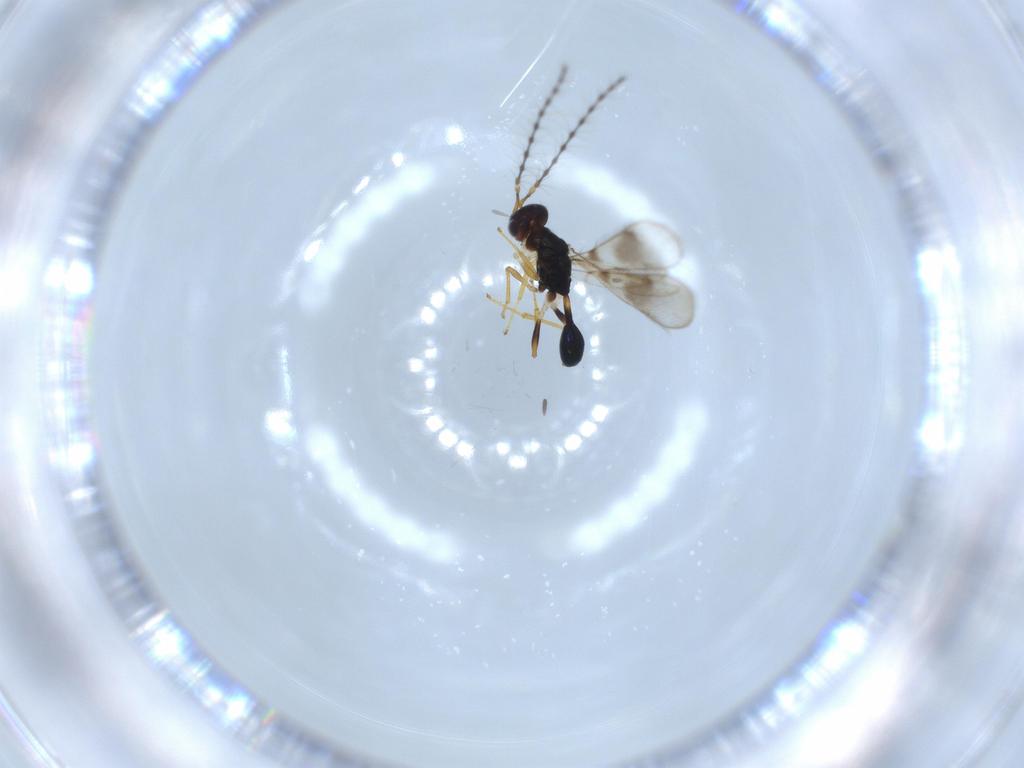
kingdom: Animalia
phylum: Arthropoda
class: Insecta
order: Hymenoptera
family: Diparidae
